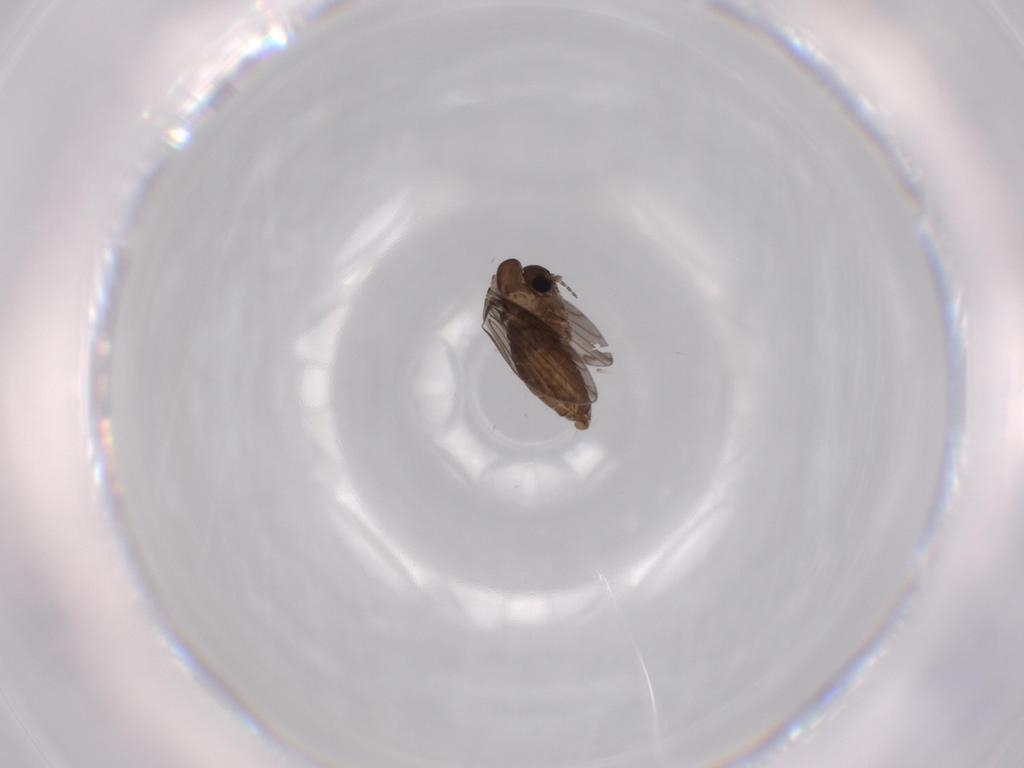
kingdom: Animalia
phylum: Arthropoda
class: Insecta
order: Diptera
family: Psychodidae
